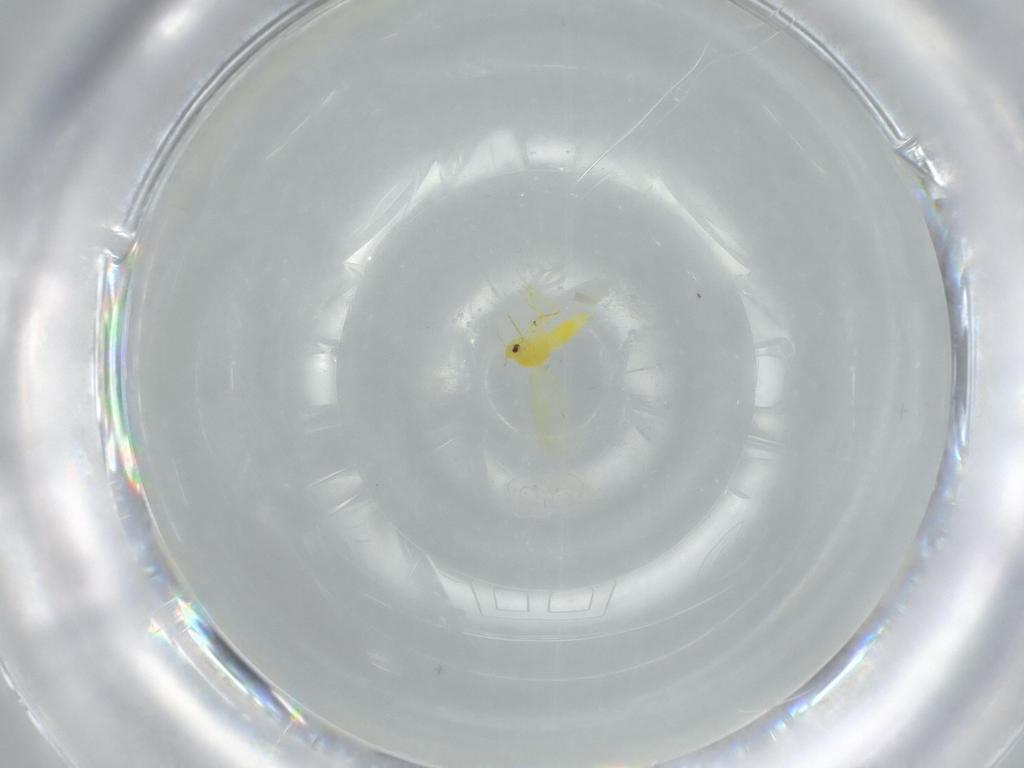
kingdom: Animalia
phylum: Arthropoda
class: Insecta
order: Hemiptera
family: Aleyrodidae
